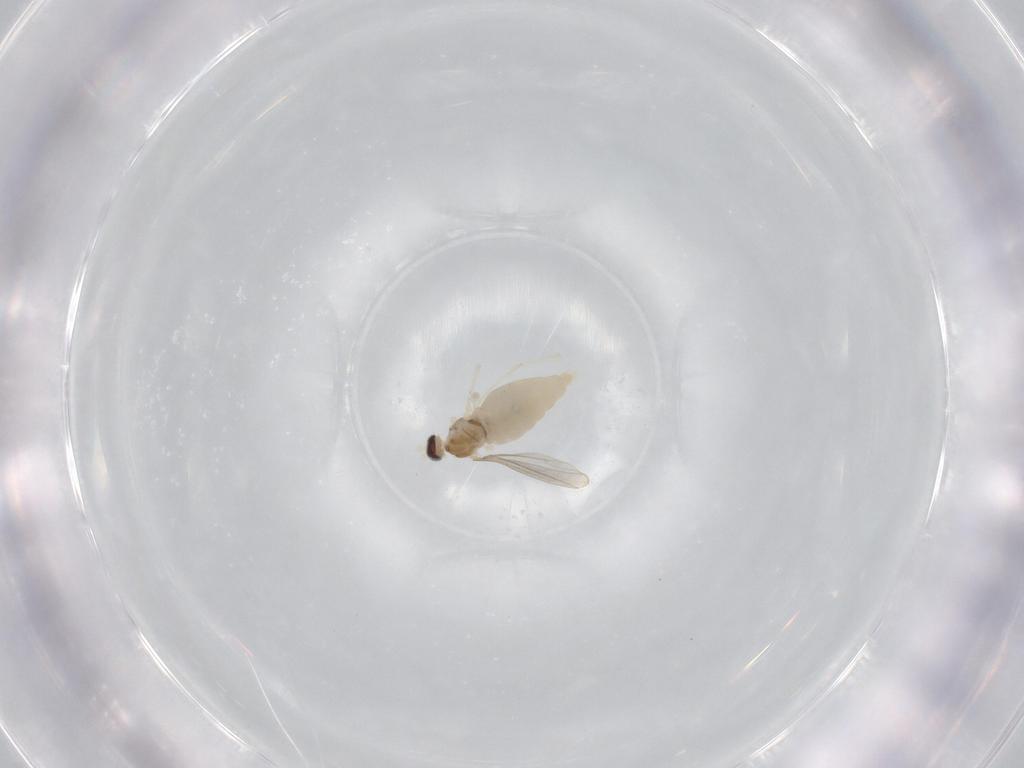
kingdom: Animalia
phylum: Arthropoda
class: Insecta
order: Diptera
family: Cecidomyiidae
